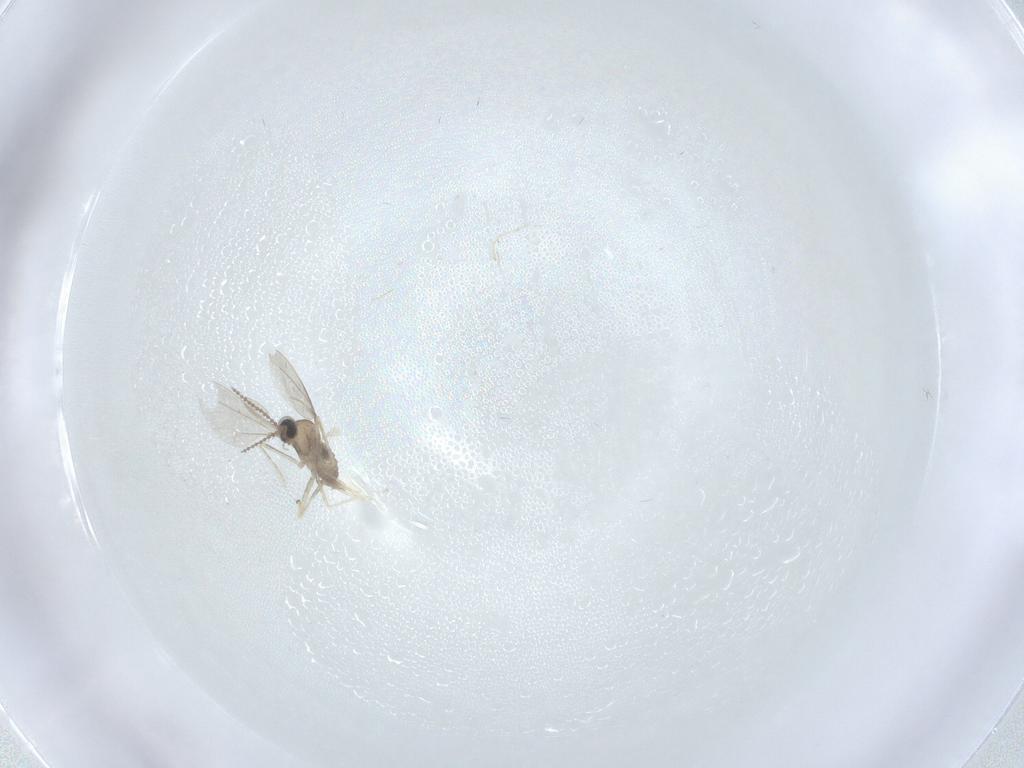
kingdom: Animalia
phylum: Arthropoda
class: Insecta
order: Diptera
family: Cecidomyiidae
